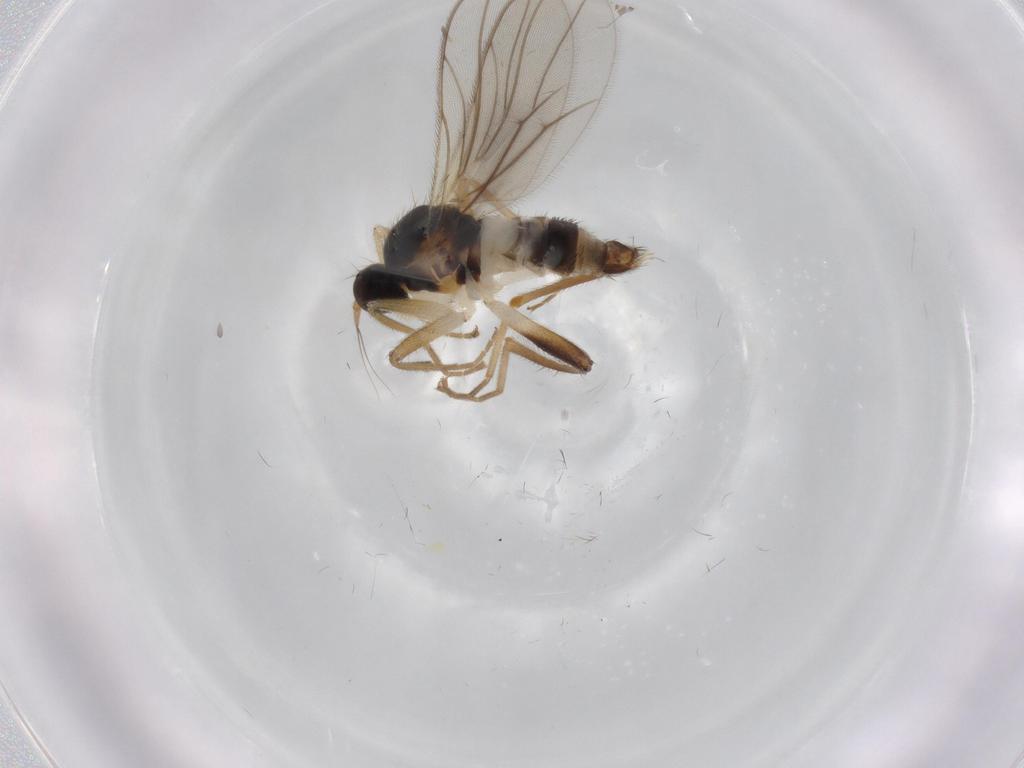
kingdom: Animalia
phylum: Arthropoda
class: Insecta
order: Diptera
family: Hybotidae
